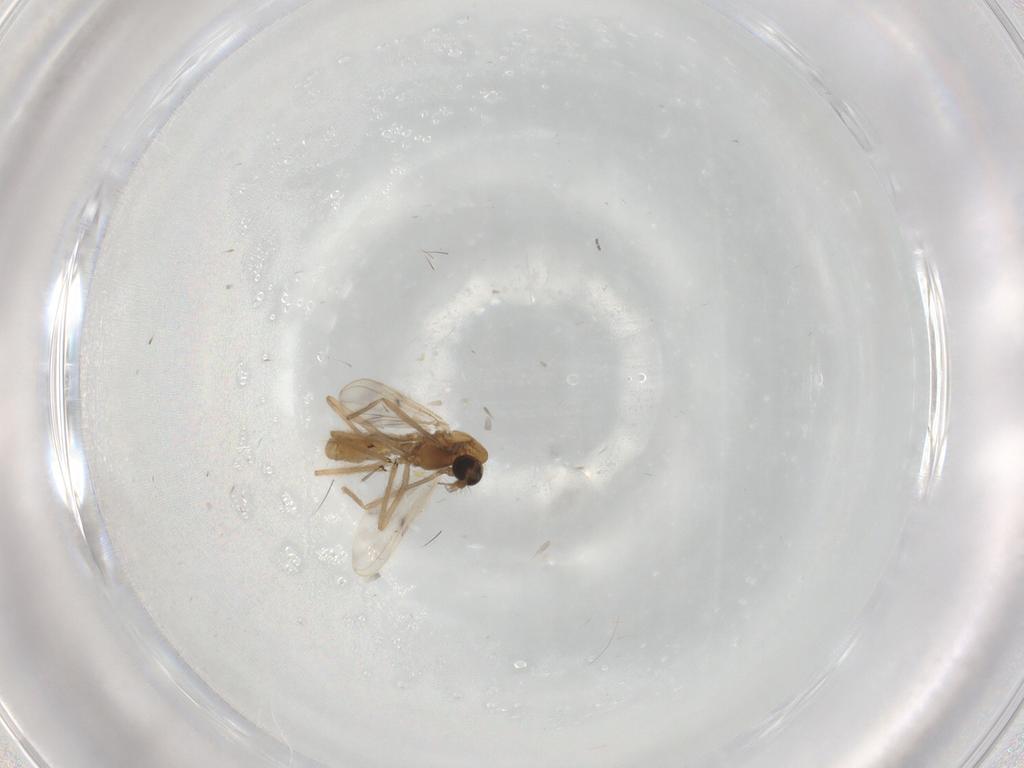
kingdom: Animalia
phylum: Arthropoda
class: Insecta
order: Diptera
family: Chironomidae
